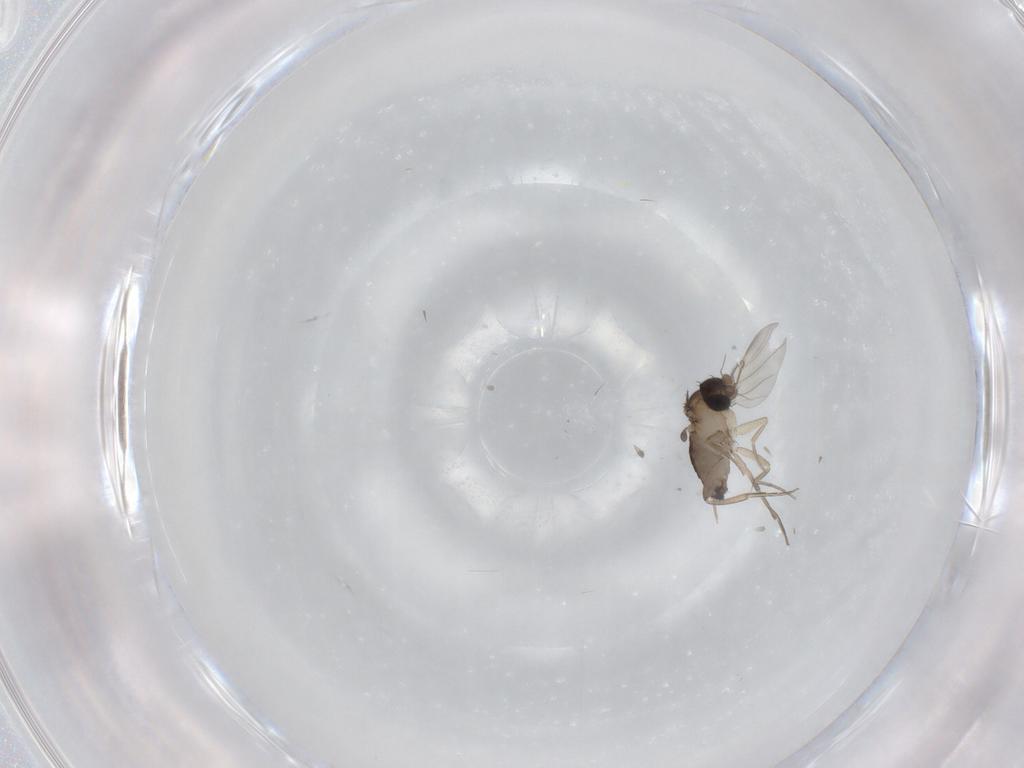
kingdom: Animalia
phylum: Arthropoda
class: Insecta
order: Diptera
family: Phoridae
